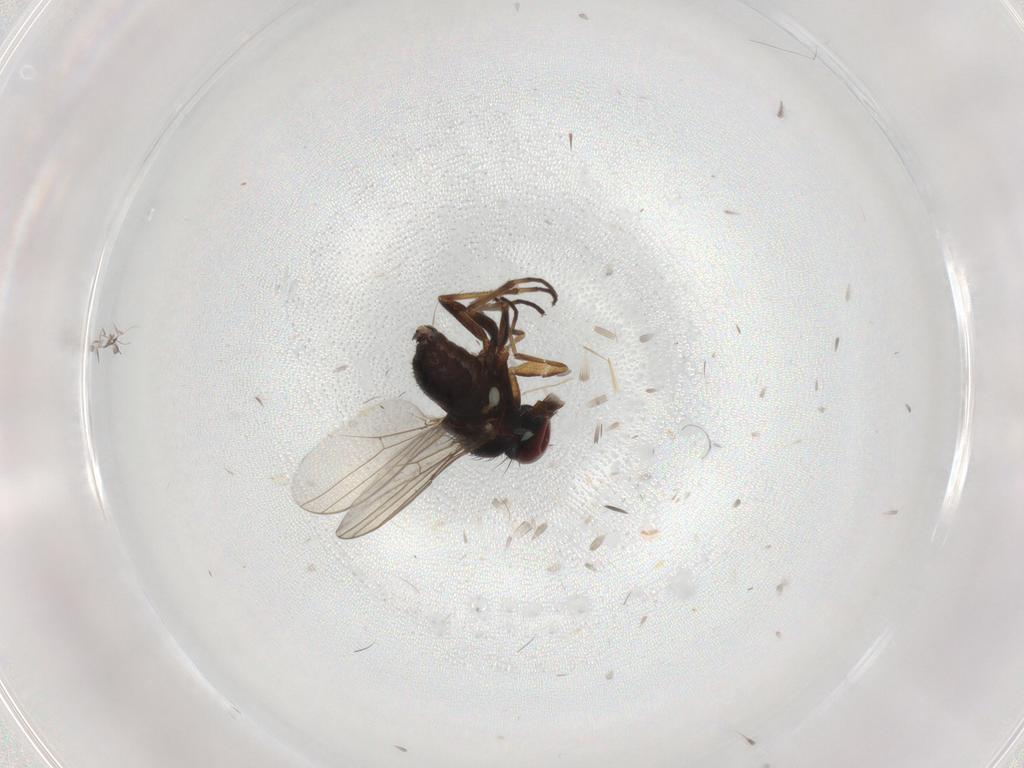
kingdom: Animalia
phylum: Arthropoda
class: Insecta
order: Diptera
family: Dolichopodidae
